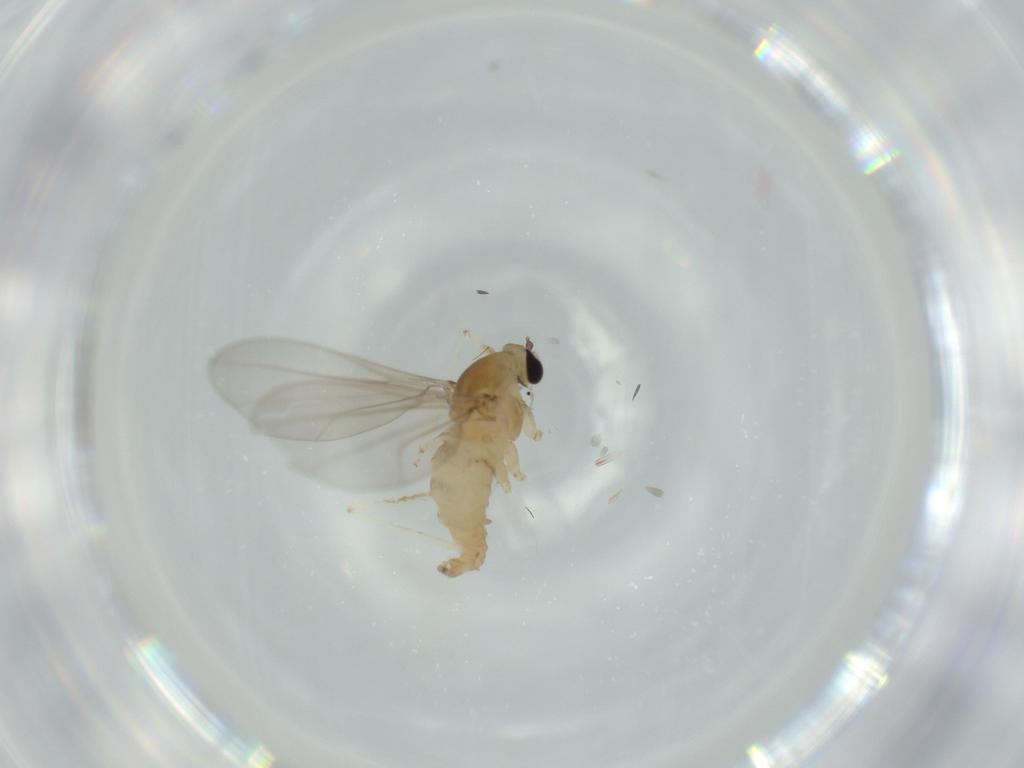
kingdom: Animalia
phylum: Arthropoda
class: Insecta
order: Diptera
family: Cecidomyiidae
